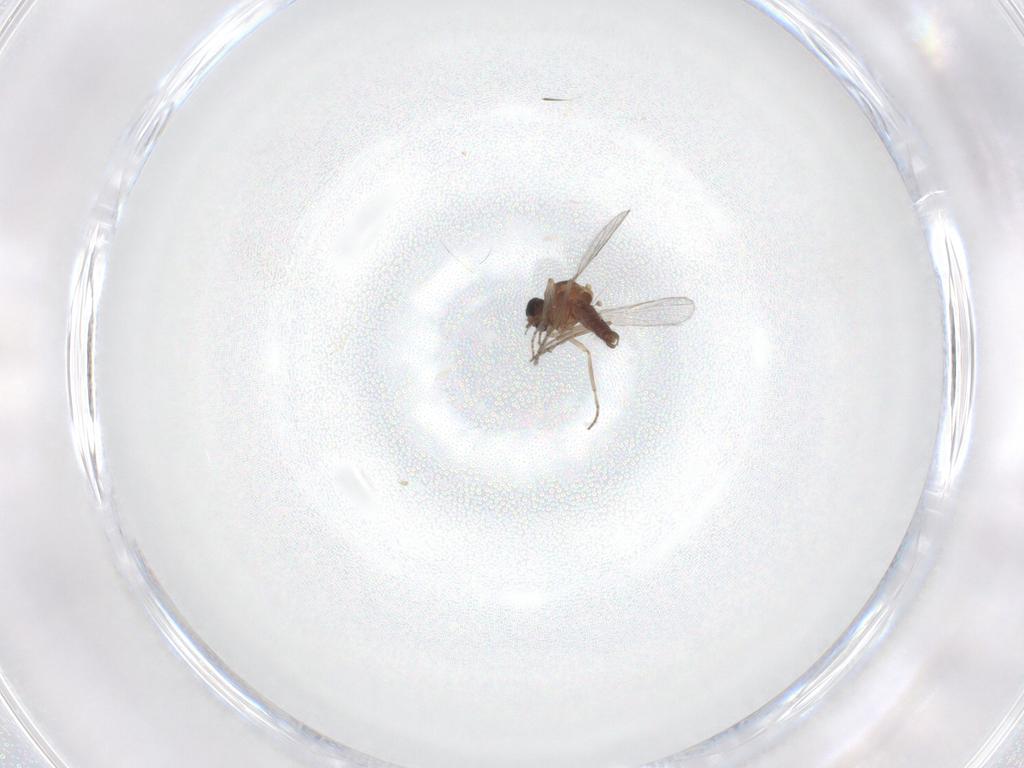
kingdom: Animalia
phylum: Arthropoda
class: Insecta
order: Diptera
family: Ceratopogonidae
